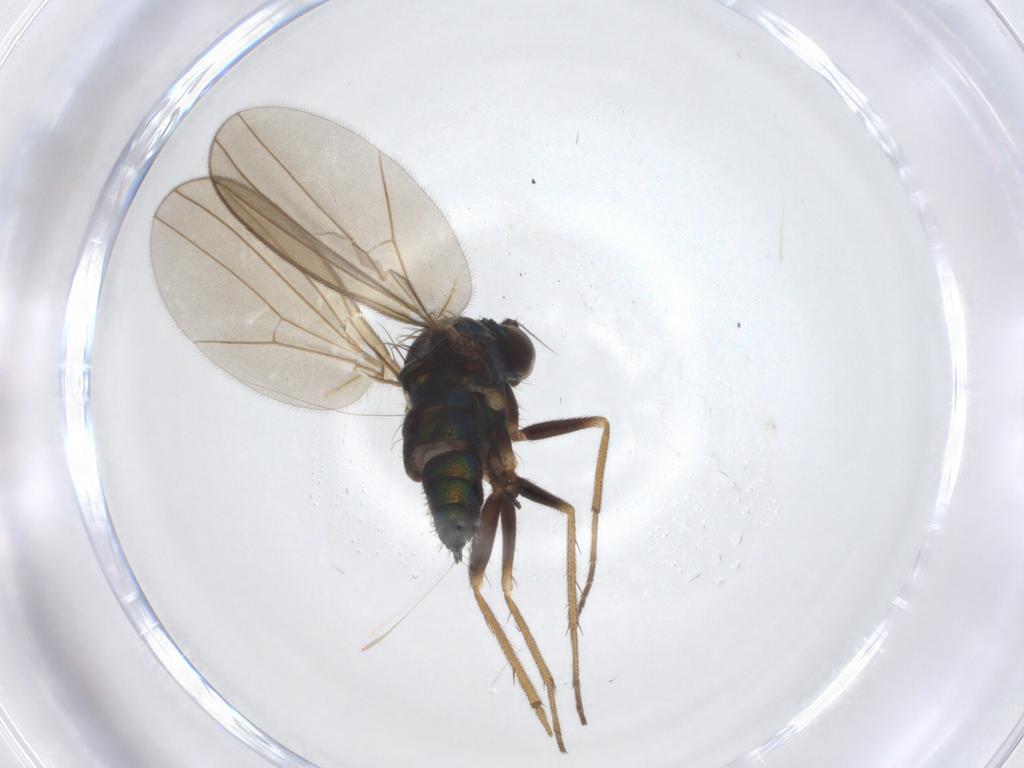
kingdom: Animalia
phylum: Arthropoda
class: Insecta
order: Diptera
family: Dolichopodidae
